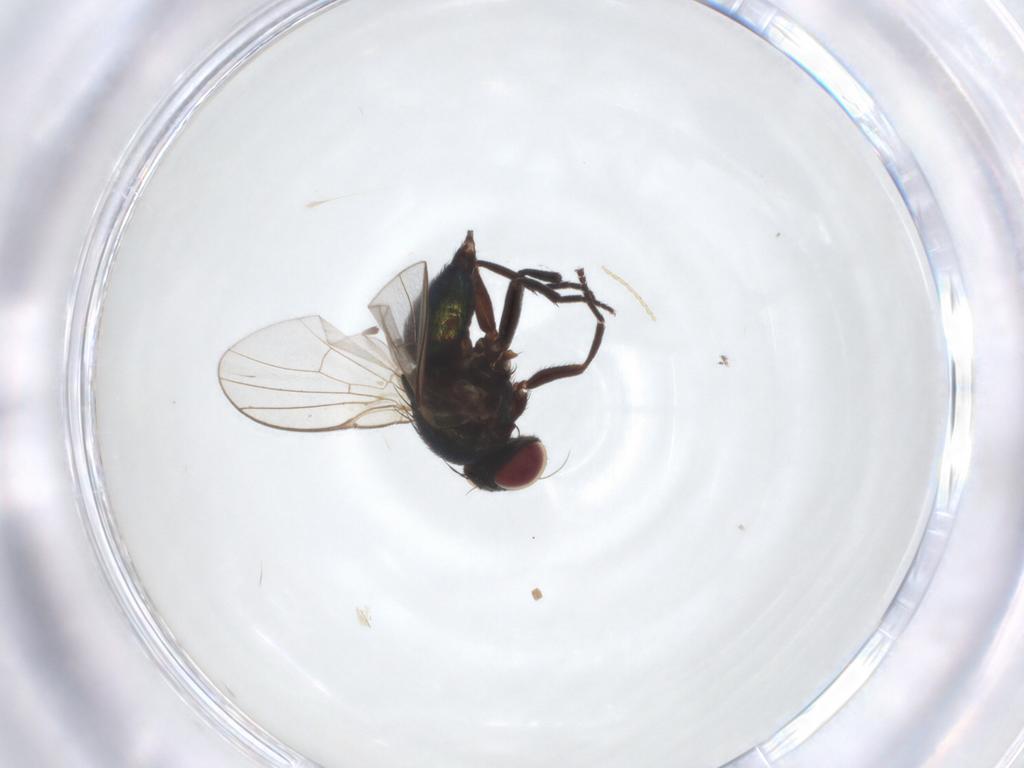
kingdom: Animalia
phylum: Arthropoda
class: Insecta
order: Diptera
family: Agromyzidae
